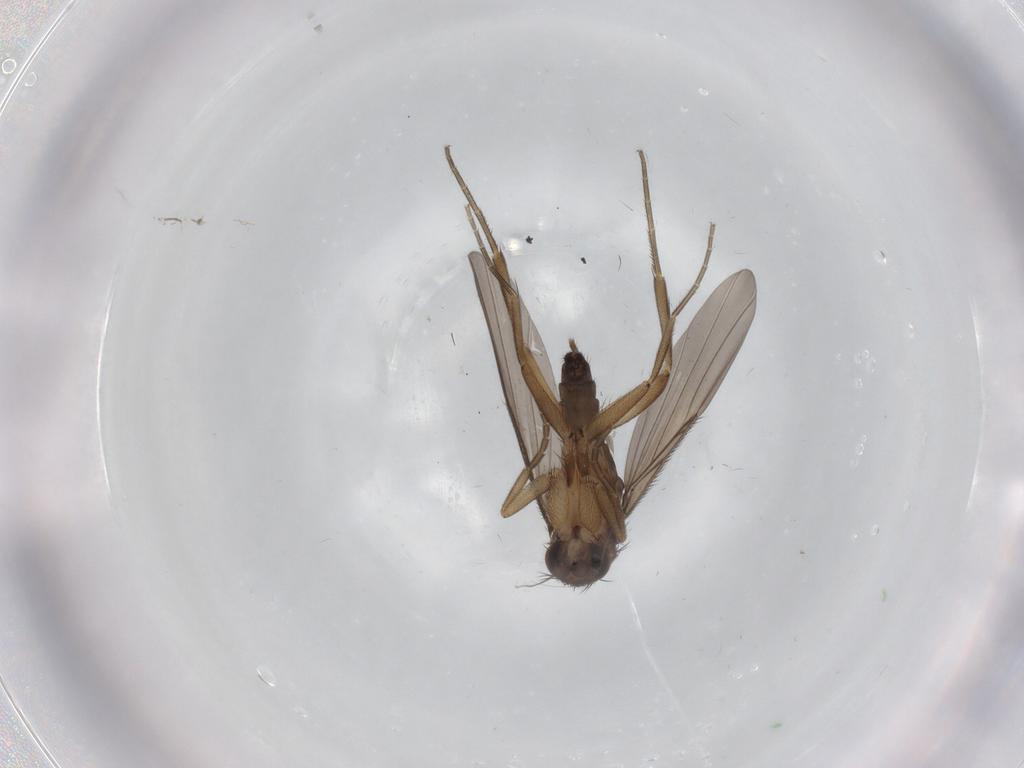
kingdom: Animalia
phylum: Arthropoda
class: Insecta
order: Diptera
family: Phoridae
